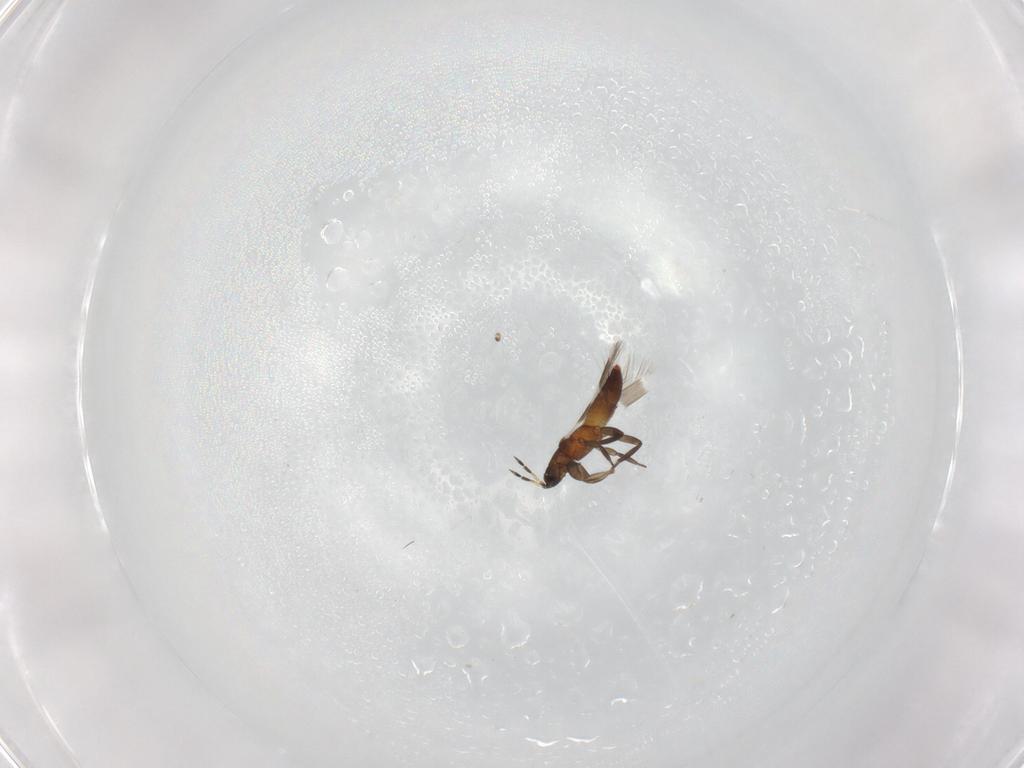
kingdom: Animalia
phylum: Arthropoda
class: Insecta
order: Thysanoptera
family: Aeolothripidae
